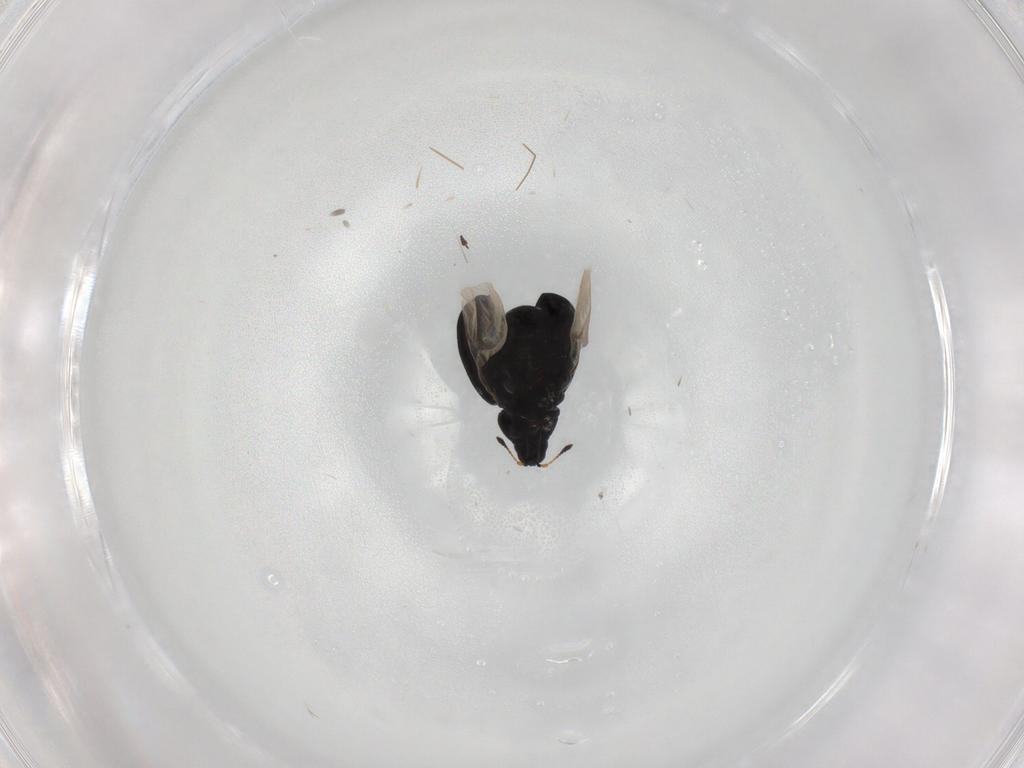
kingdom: Animalia
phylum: Arthropoda
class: Insecta
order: Coleoptera
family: Curculionidae
